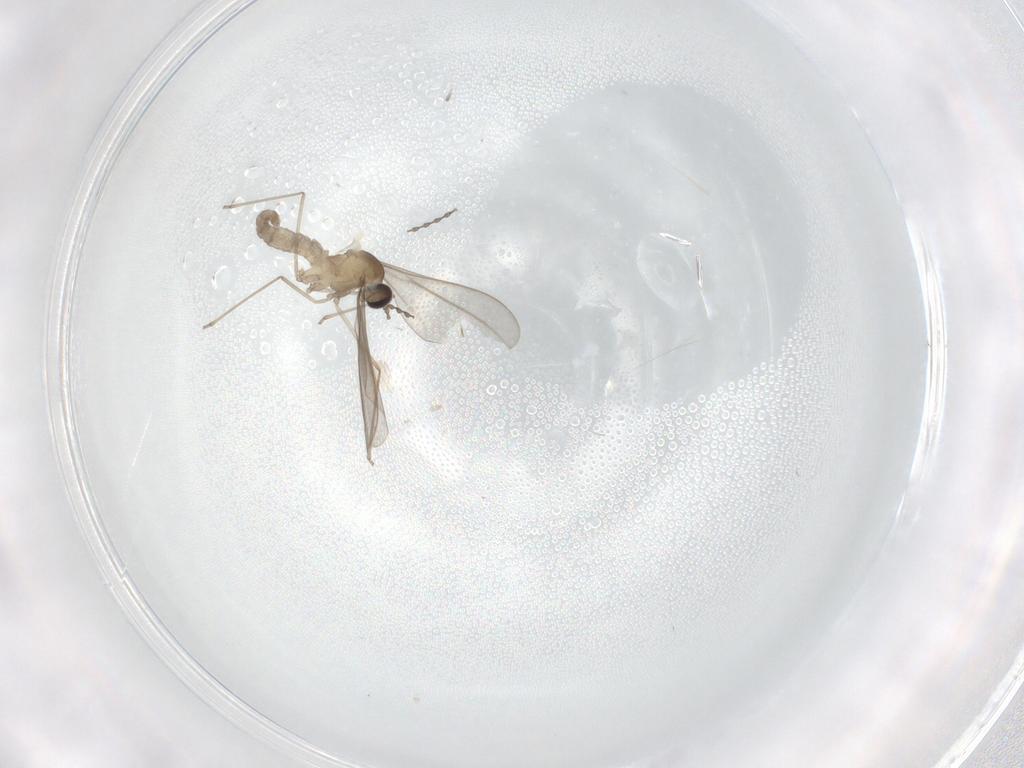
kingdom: Animalia
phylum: Arthropoda
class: Insecta
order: Diptera
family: Cecidomyiidae
